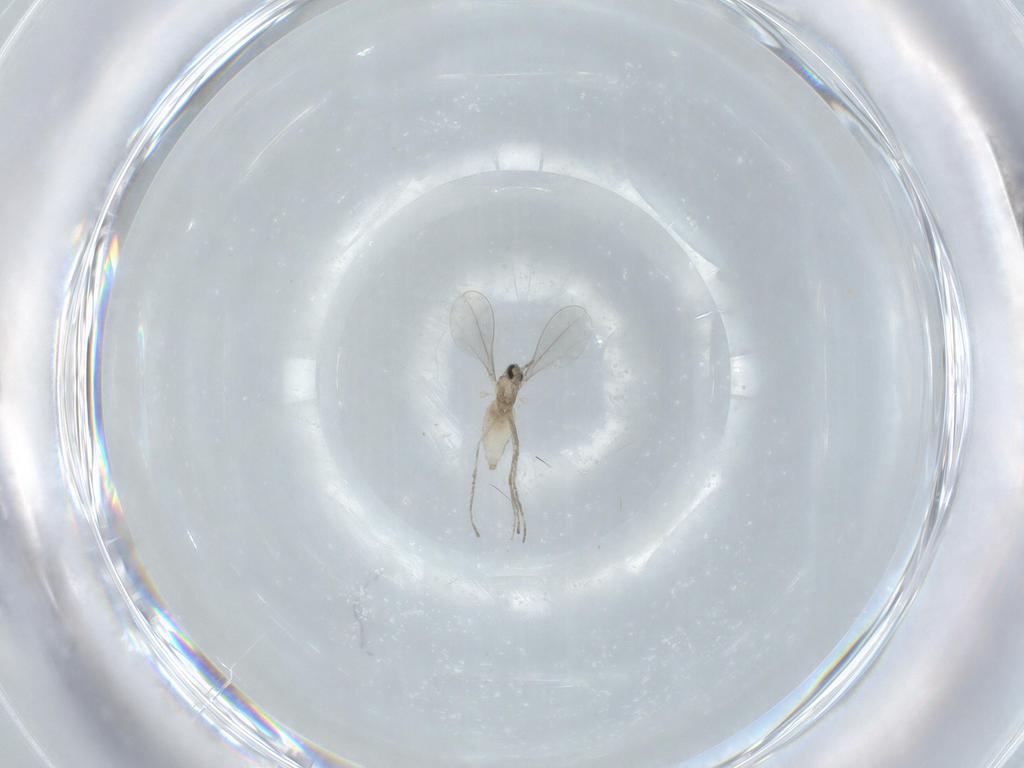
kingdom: Animalia
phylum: Arthropoda
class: Insecta
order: Diptera
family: Cecidomyiidae
